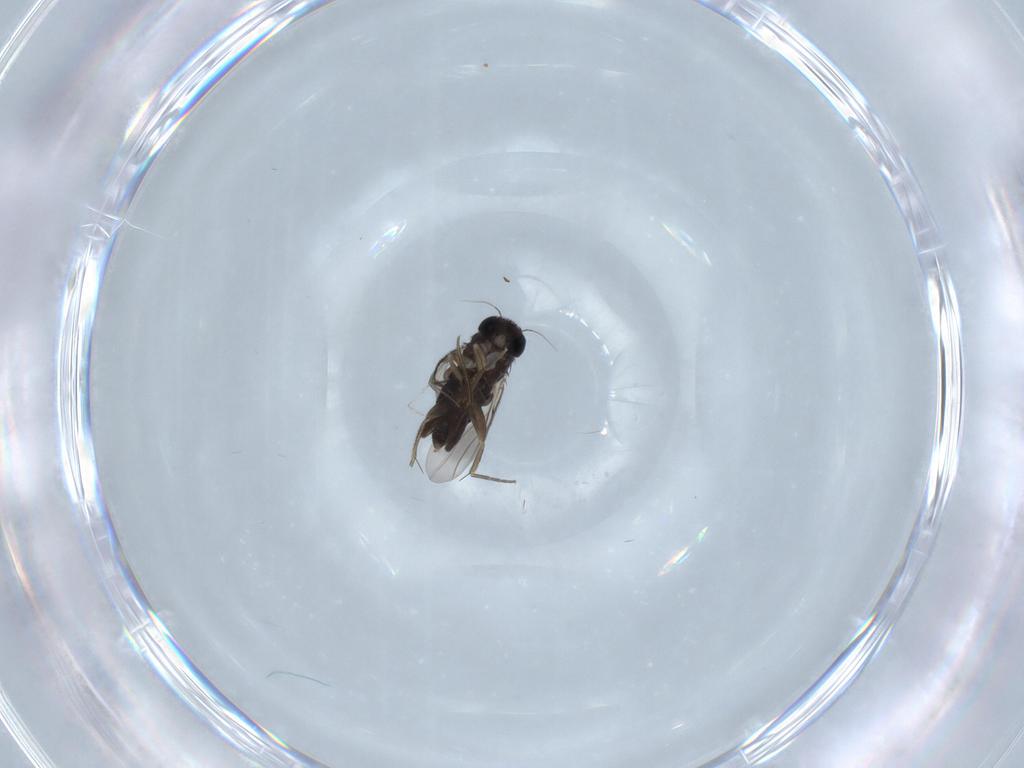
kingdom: Animalia
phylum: Arthropoda
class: Insecta
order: Diptera
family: Phoridae
